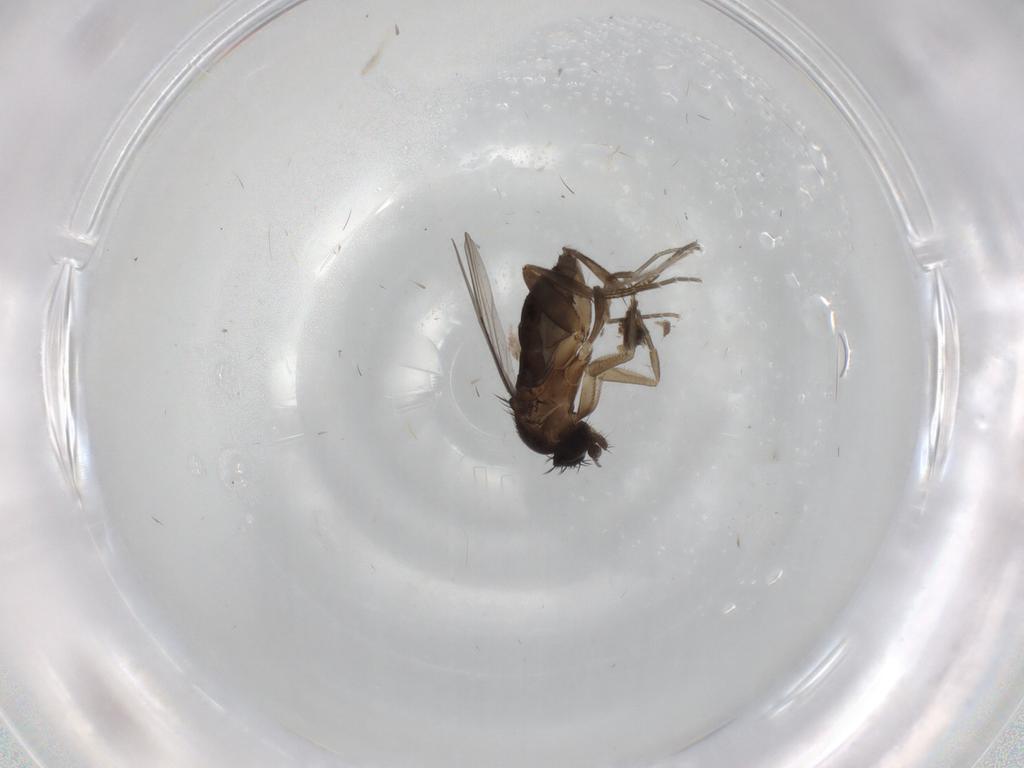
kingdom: Animalia
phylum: Arthropoda
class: Insecta
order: Diptera
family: Phoridae
